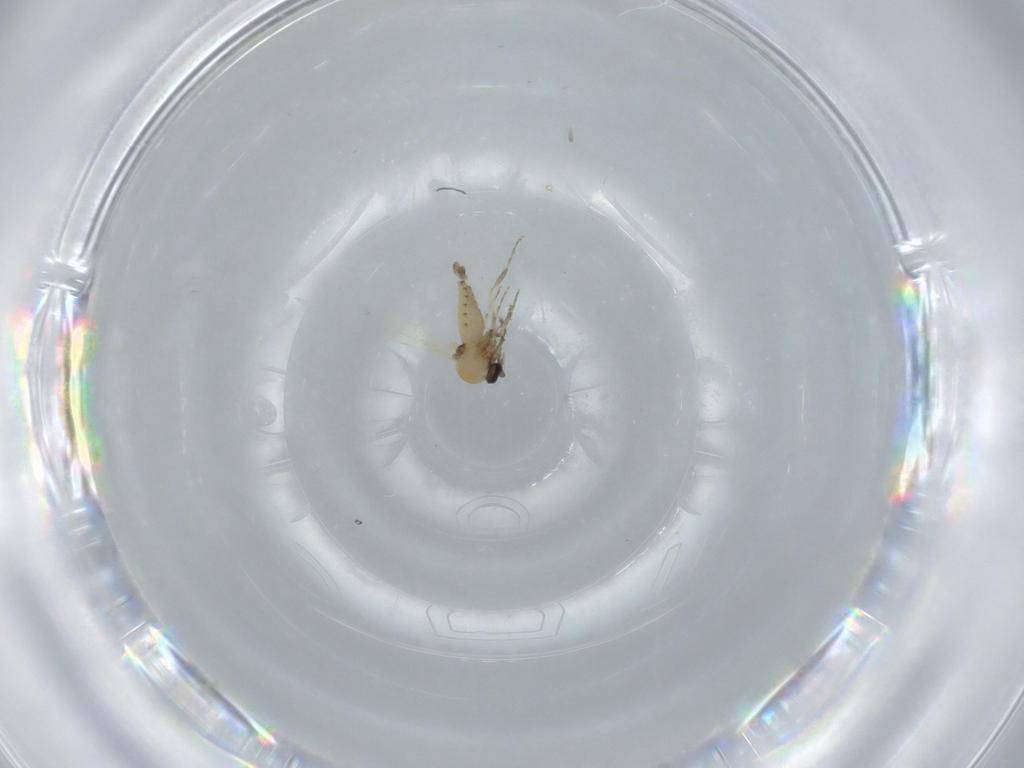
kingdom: Animalia
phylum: Arthropoda
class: Insecta
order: Diptera
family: Ceratopogonidae
